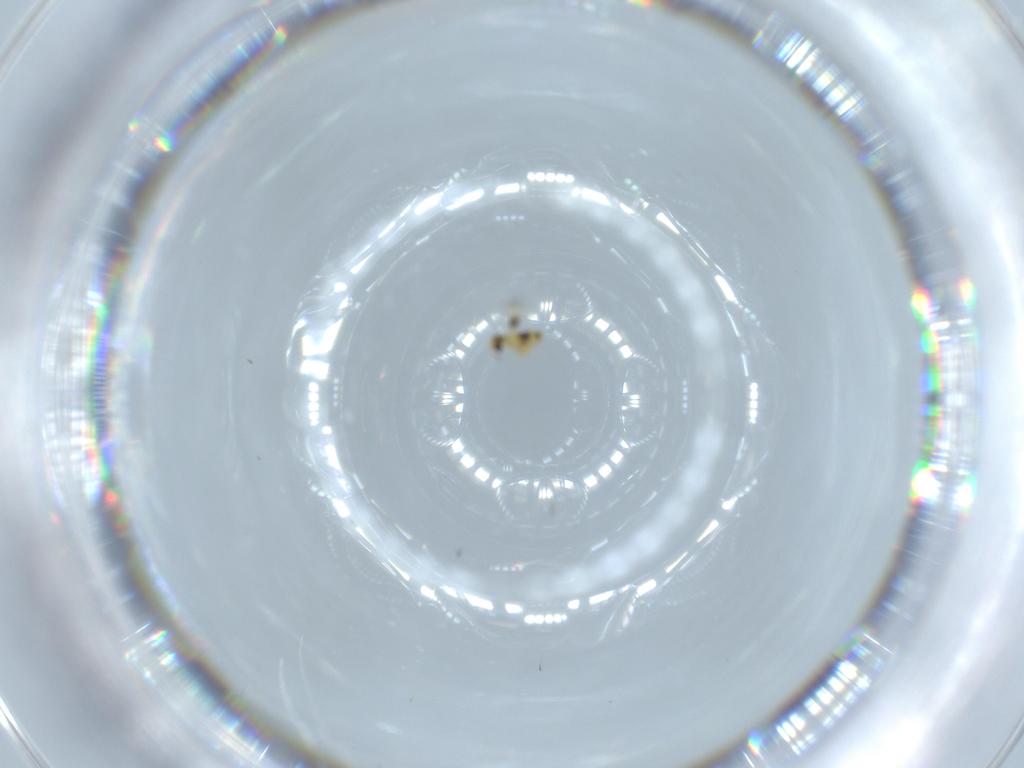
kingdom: Animalia
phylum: Arthropoda
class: Insecta
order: Hymenoptera
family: Signiphoridae
